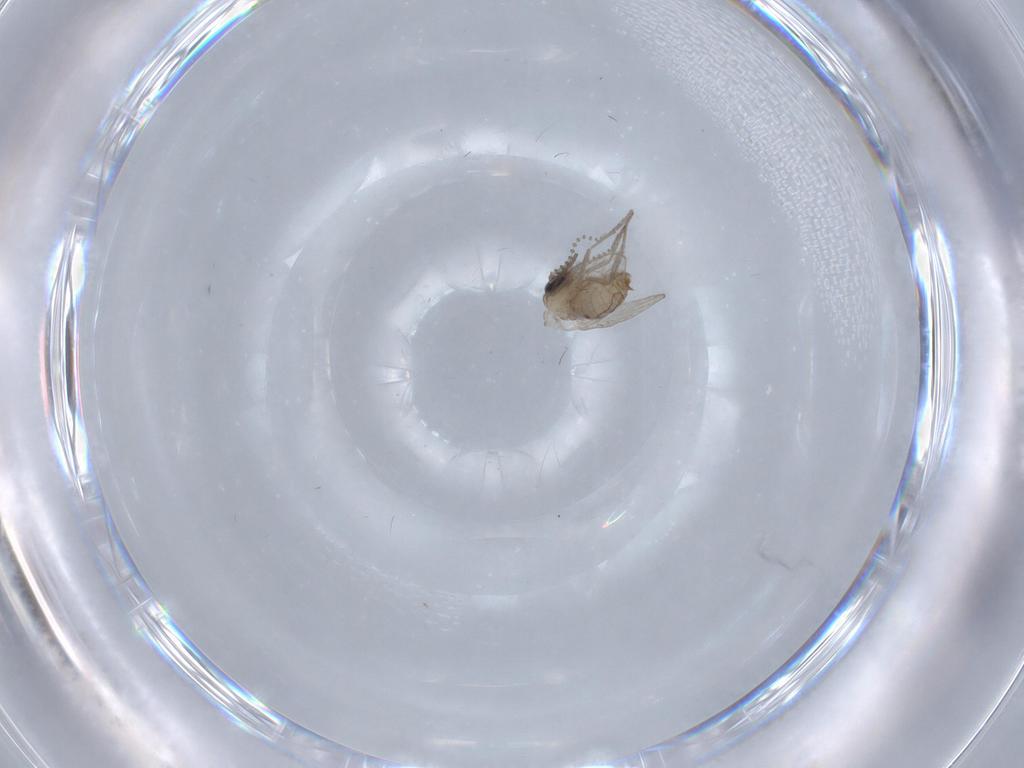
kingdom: Animalia
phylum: Arthropoda
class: Insecta
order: Diptera
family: Psychodidae
